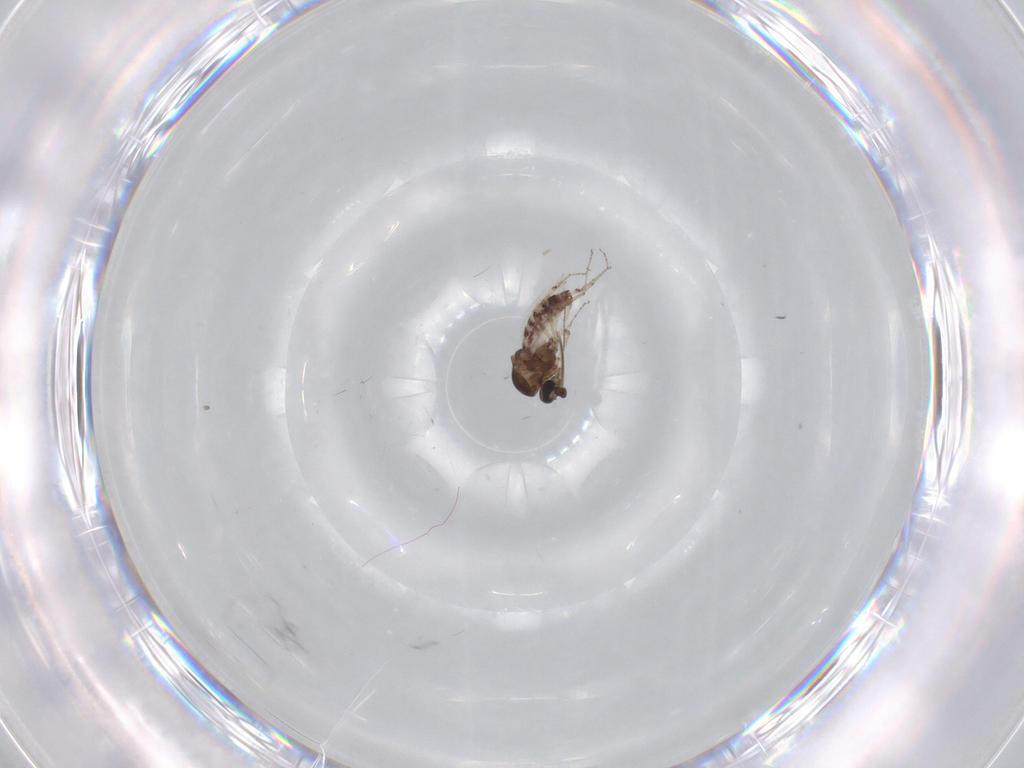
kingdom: Animalia
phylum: Arthropoda
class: Insecta
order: Diptera
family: Ceratopogonidae
